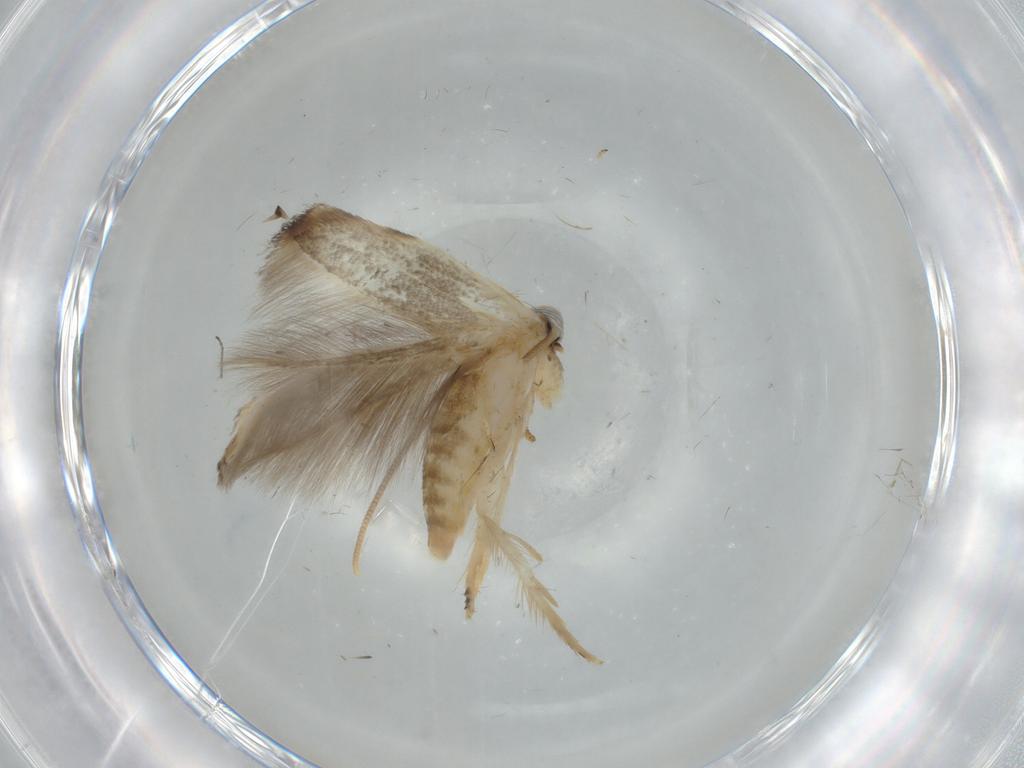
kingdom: Animalia
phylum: Arthropoda
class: Insecta
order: Lepidoptera
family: Opostegidae
